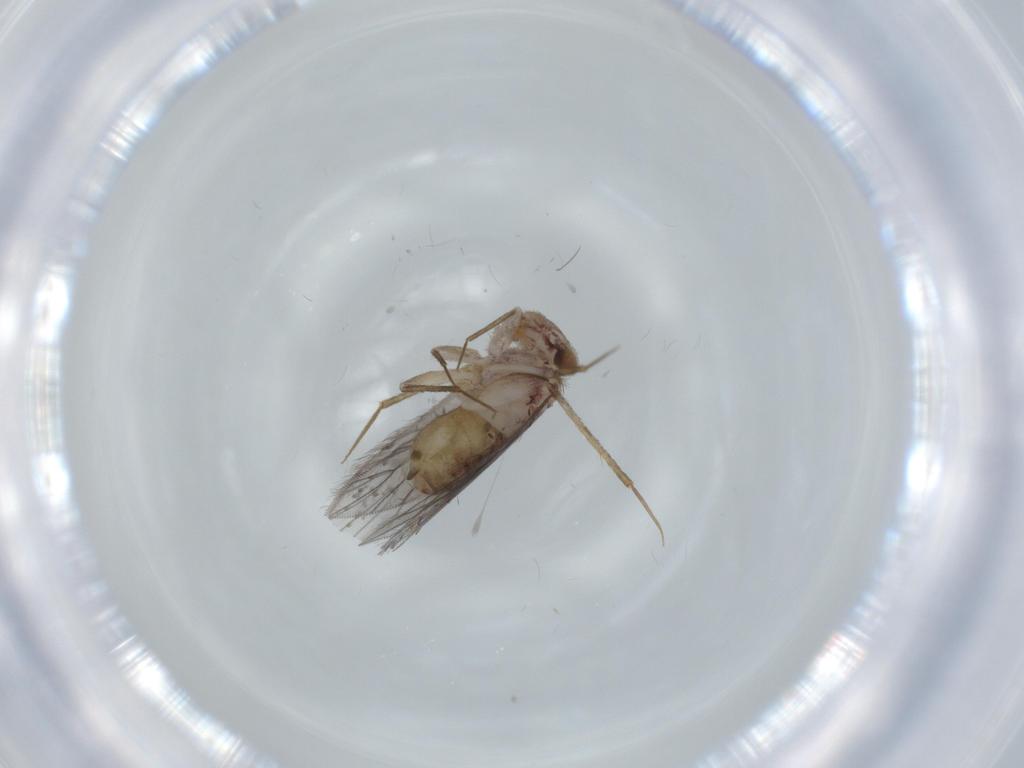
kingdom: Animalia
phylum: Arthropoda
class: Insecta
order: Psocodea
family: Lepidopsocidae
